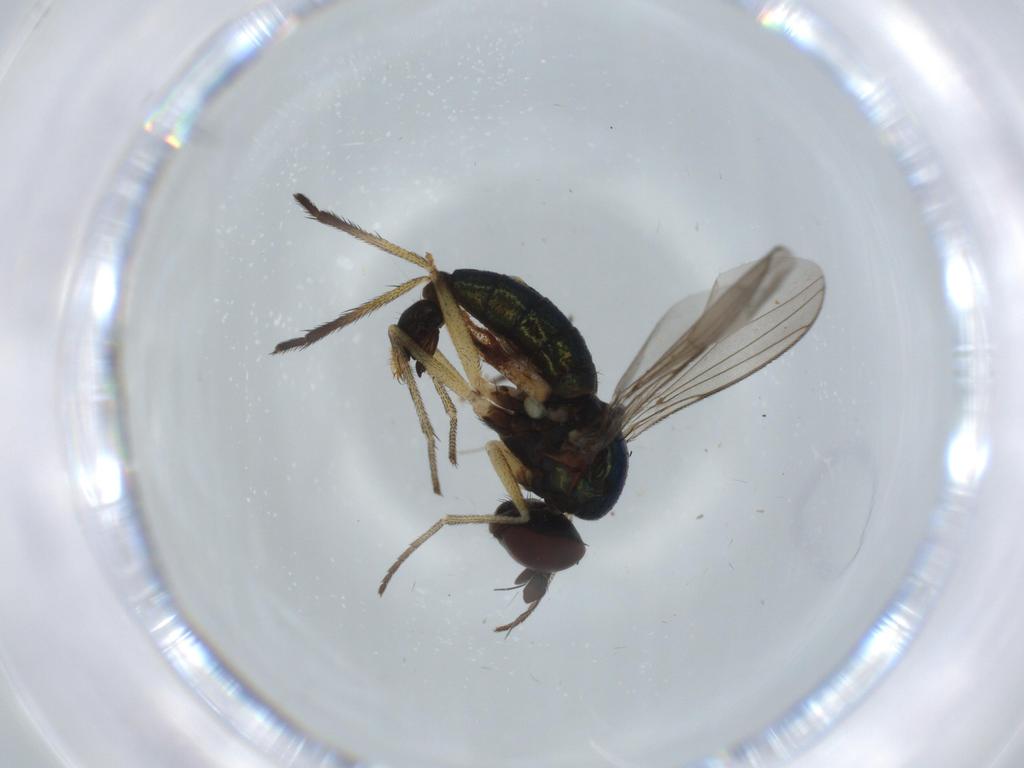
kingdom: Animalia
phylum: Arthropoda
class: Insecta
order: Diptera
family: Dolichopodidae
